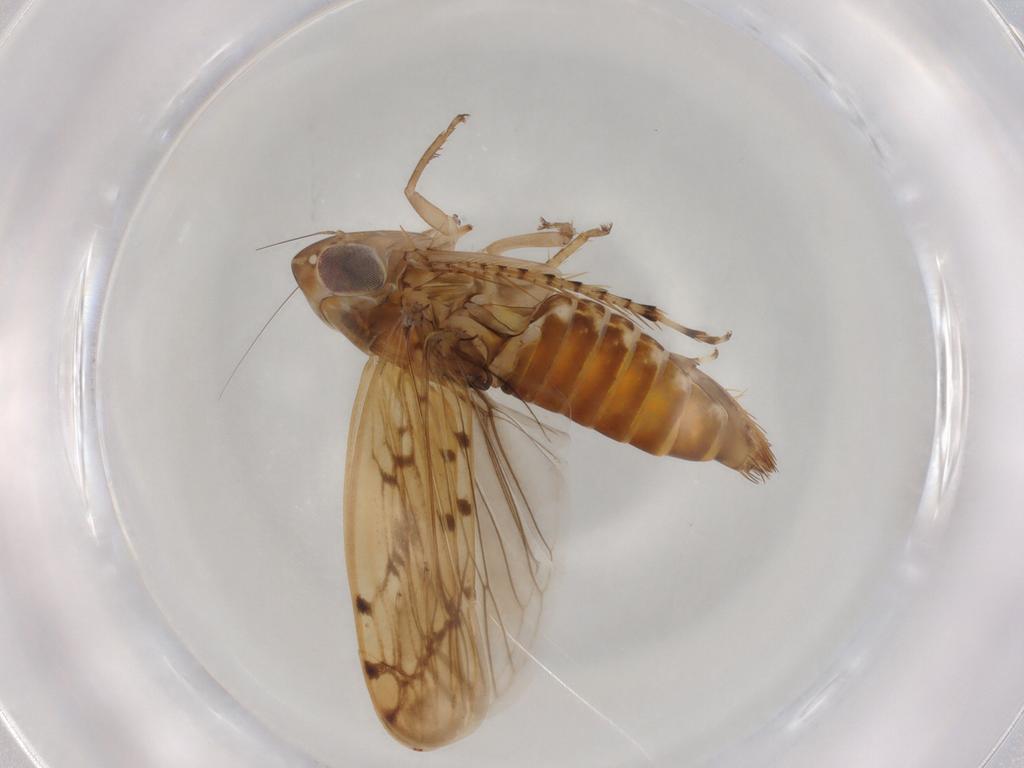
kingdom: Animalia
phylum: Arthropoda
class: Insecta
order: Hemiptera
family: Cicadellidae
